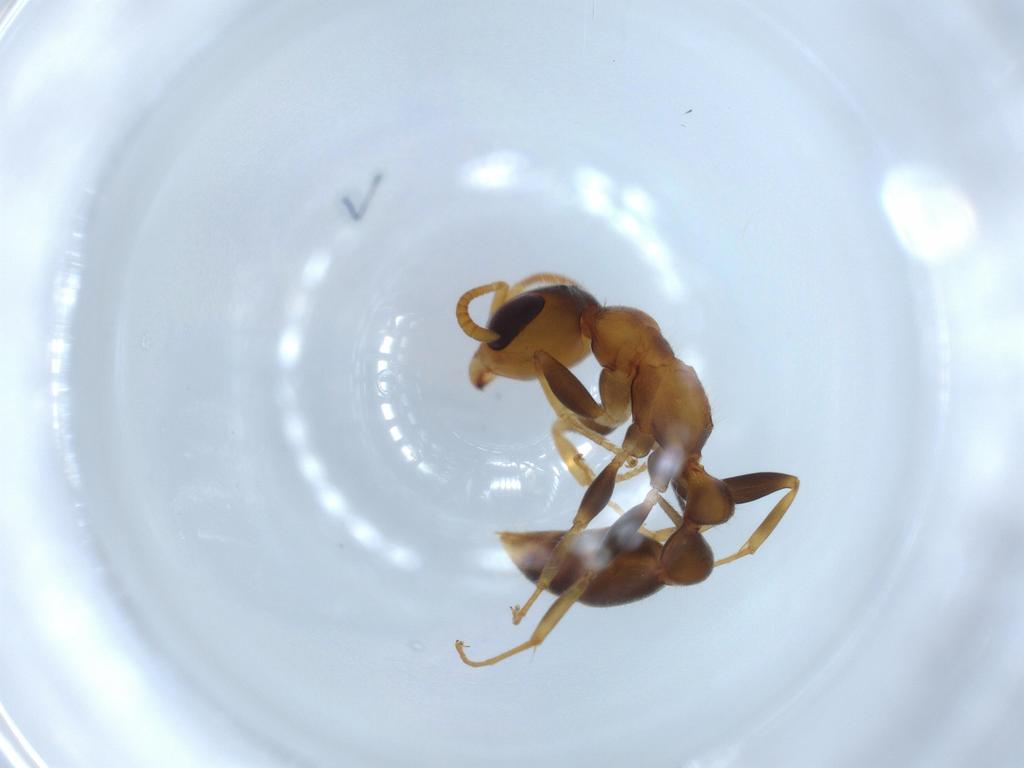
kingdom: Animalia
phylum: Arthropoda
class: Insecta
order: Hymenoptera
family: Formicidae
